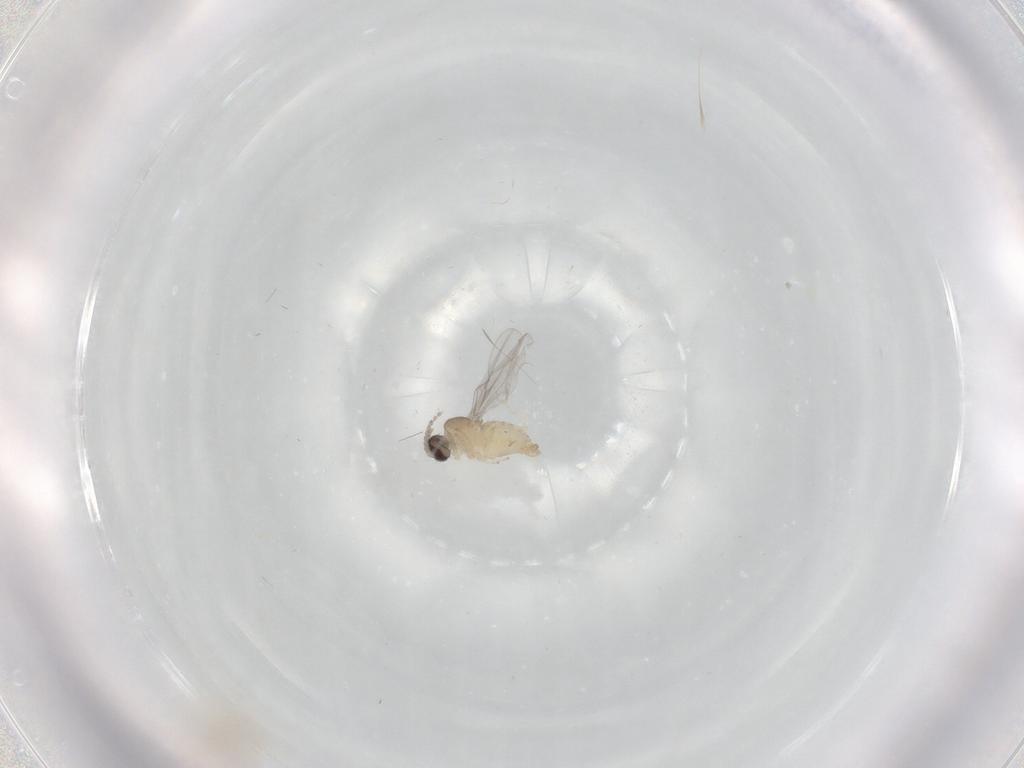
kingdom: Animalia
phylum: Arthropoda
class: Insecta
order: Diptera
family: Cecidomyiidae
